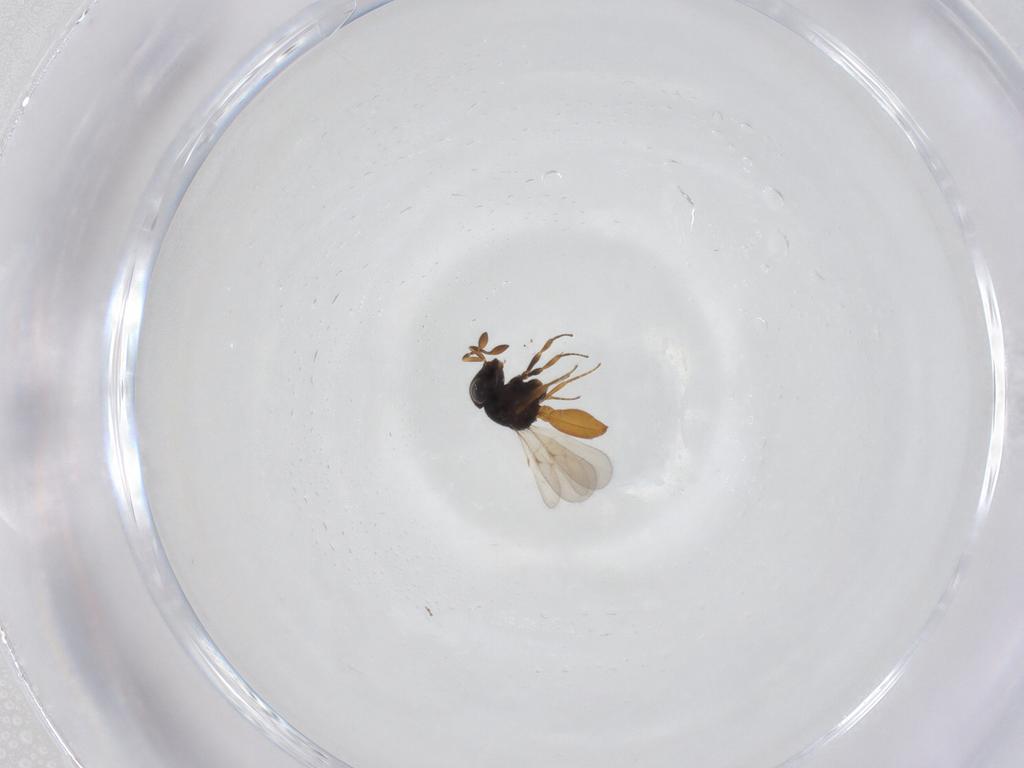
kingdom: Animalia
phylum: Arthropoda
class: Insecta
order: Hymenoptera
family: Scelionidae
